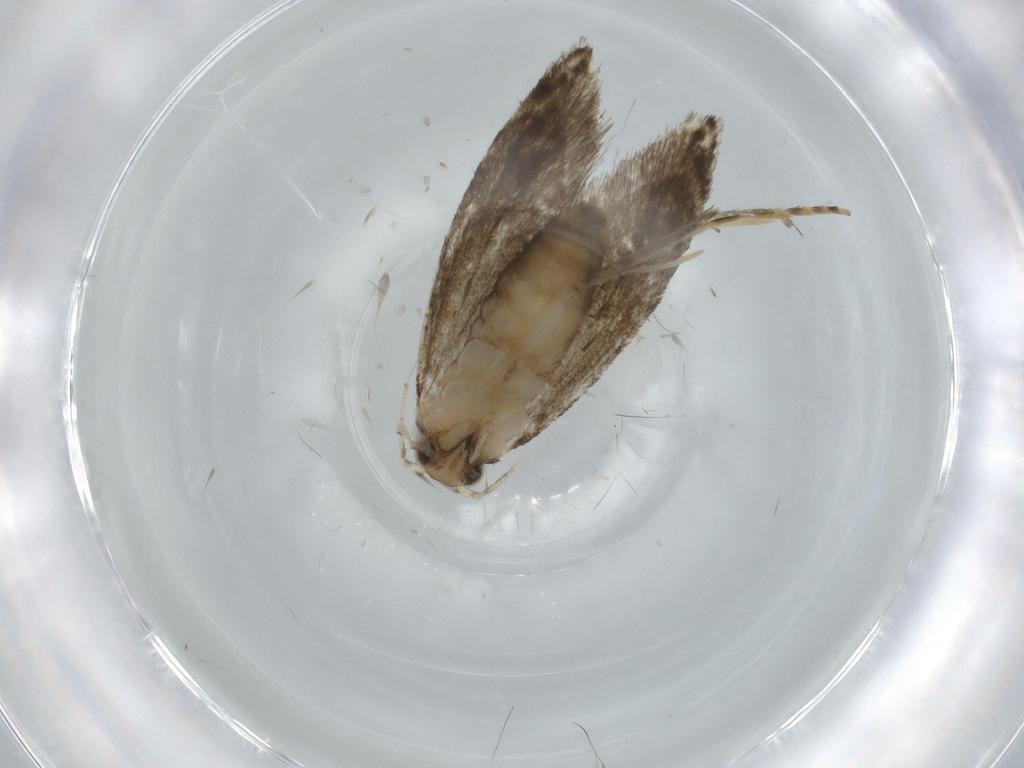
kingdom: Animalia
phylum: Arthropoda
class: Insecta
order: Lepidoptera
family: Tineidae
